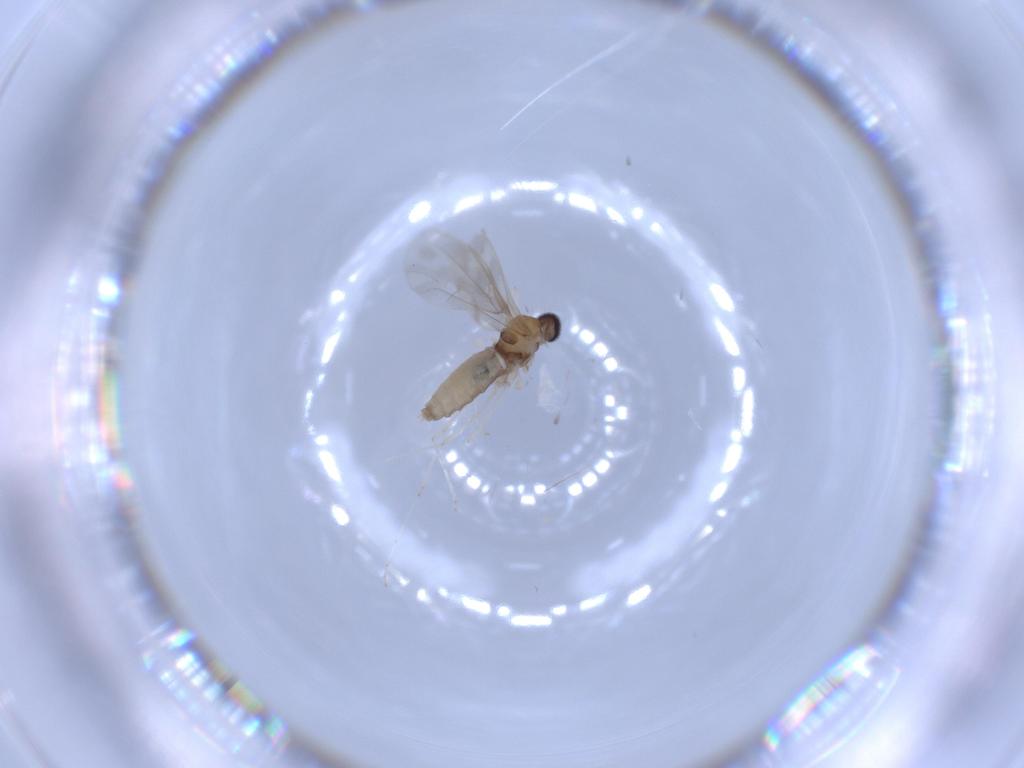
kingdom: Animalia
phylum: Arthropoda
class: Insecta
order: Diptera
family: Cecidomyiidae
